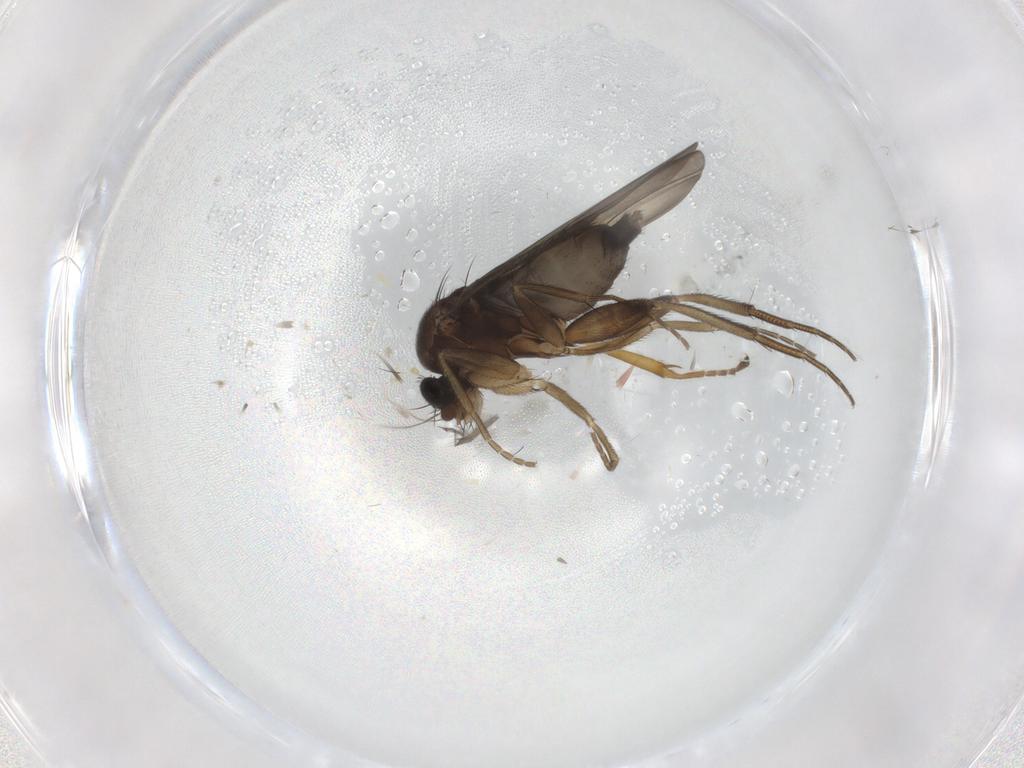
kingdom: Animalia
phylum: Arthropoda
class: Insecta
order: Diptera
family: Phoridae
